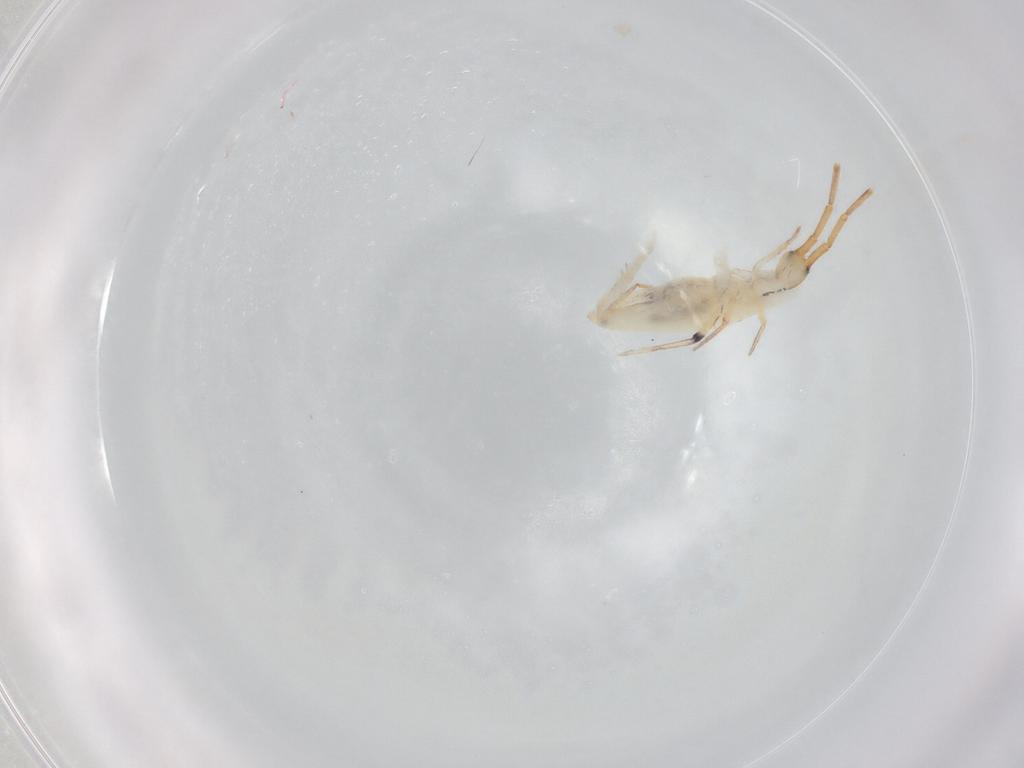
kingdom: Animalia
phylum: Arthropoda
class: Collembola
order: Entomobryomorpha
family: Entomobryidae
